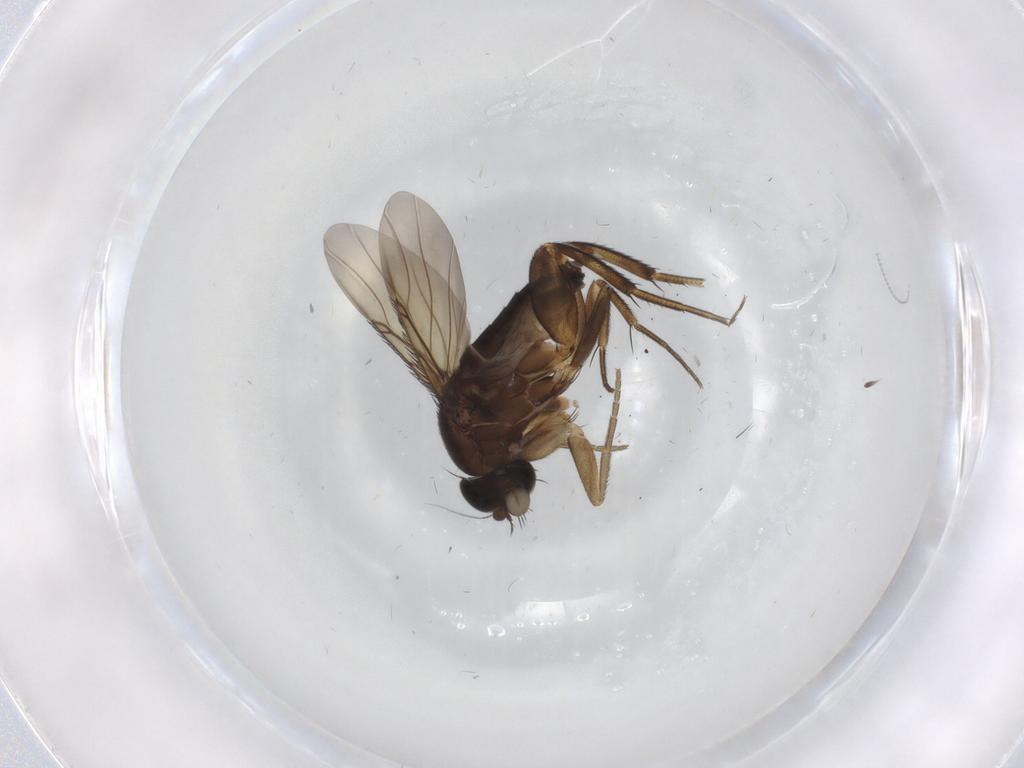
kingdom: Animalia
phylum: Arthropoda
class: Insecta
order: Diptera
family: Phoridae
